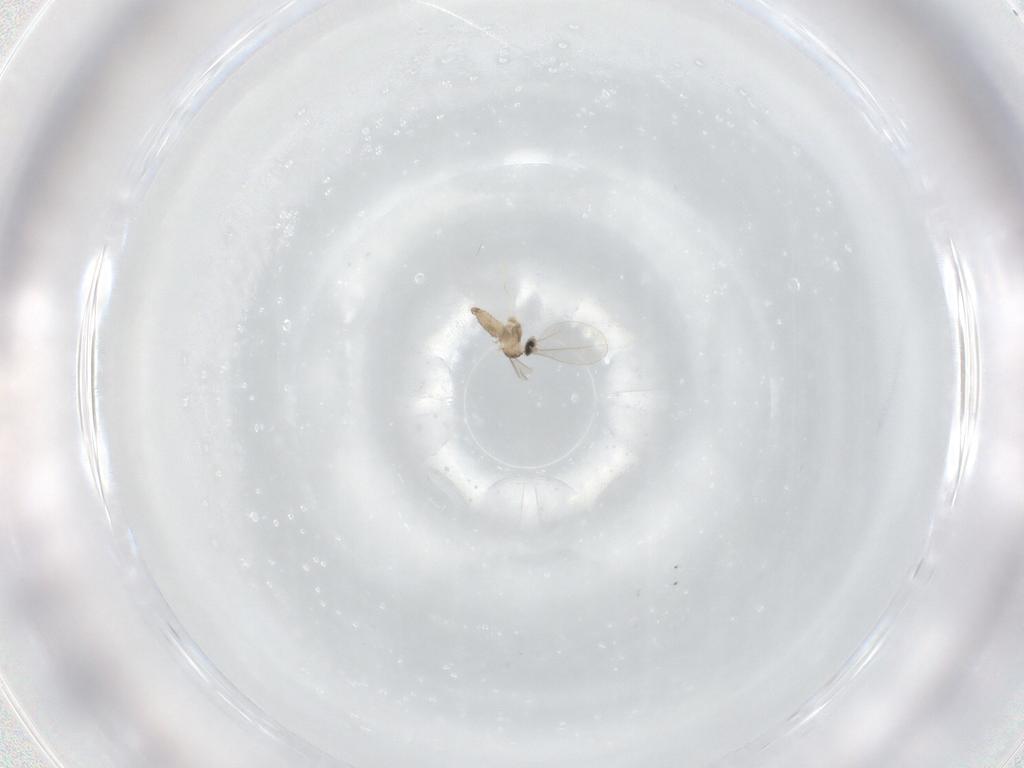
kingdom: Animalia
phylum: Arthropoda
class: Insecta
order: Diptera
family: Cecidomyiidae
